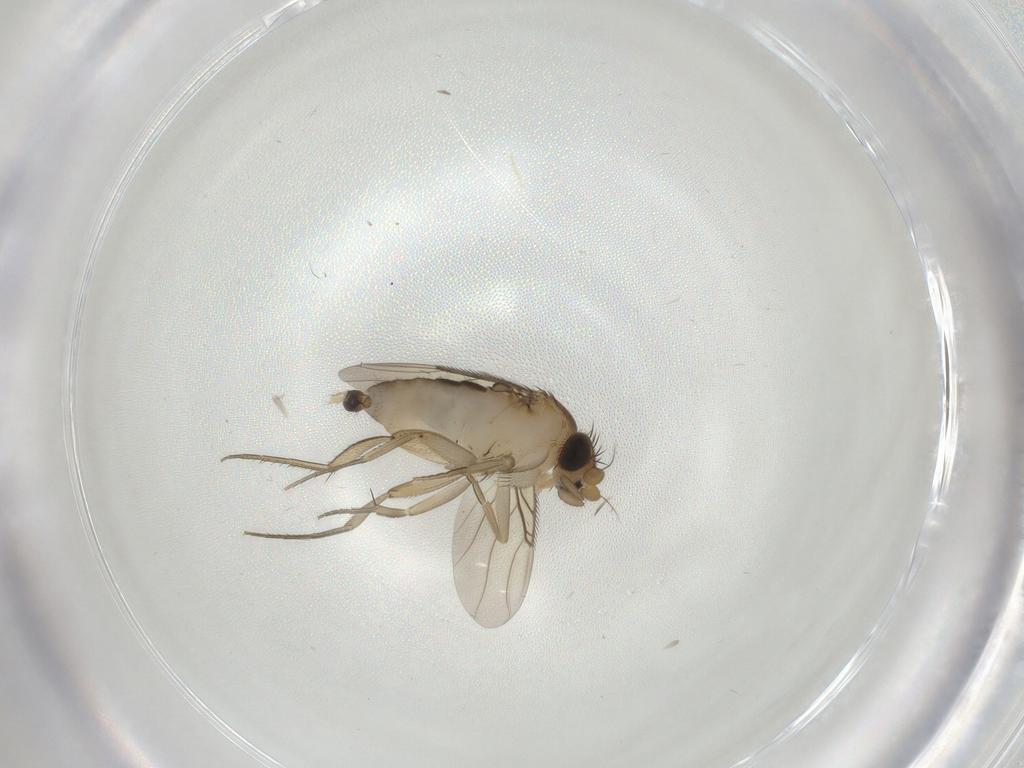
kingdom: Animalia
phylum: Arthropoda
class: Insecta
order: Diptera
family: Phoridae
